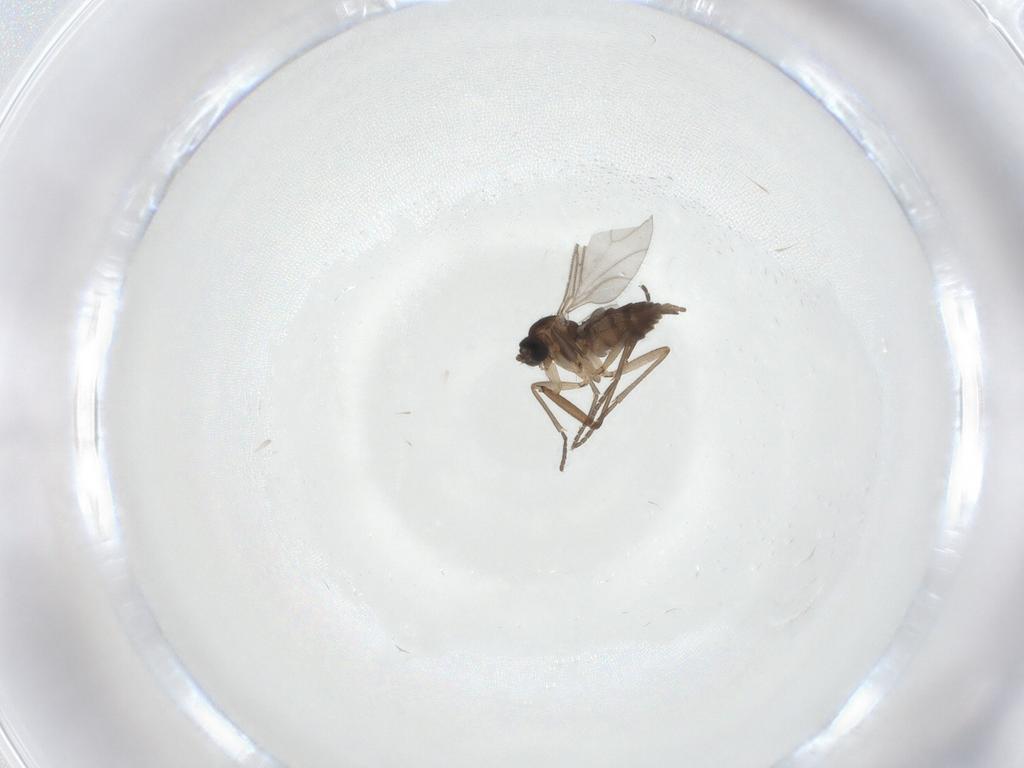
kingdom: Animalia
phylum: Arthropoda
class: Insecta
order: Diptera
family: Sciaridae
